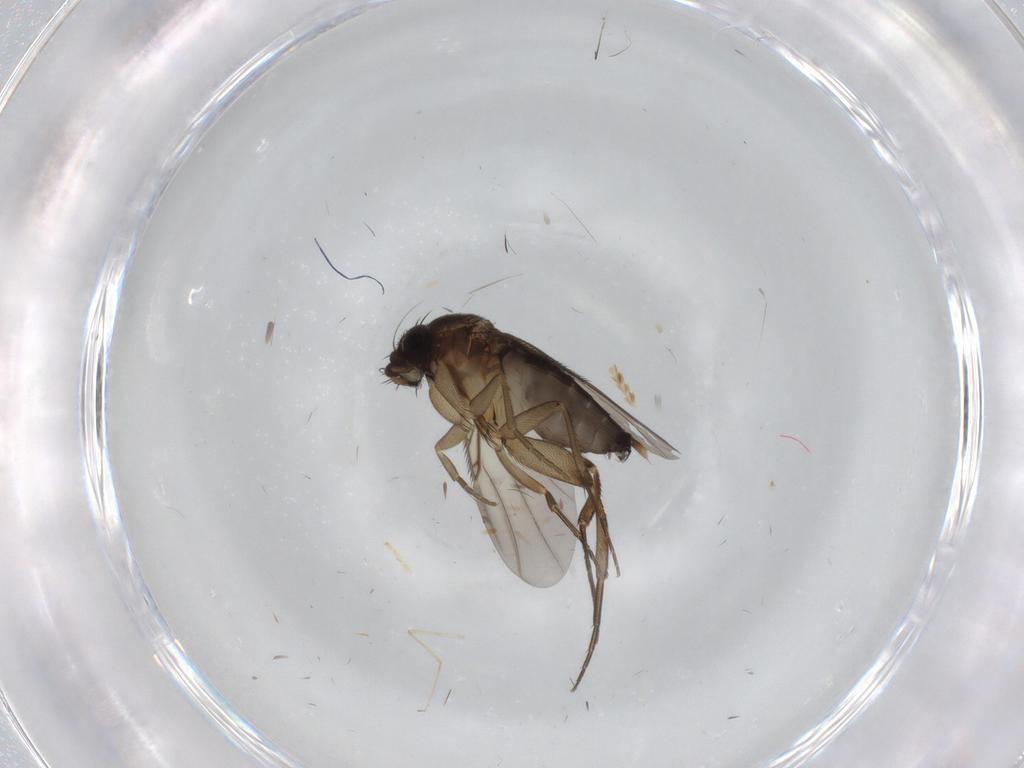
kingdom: Animalia
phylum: Arthropoda
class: Insecta
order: Diptera
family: Phoridae
